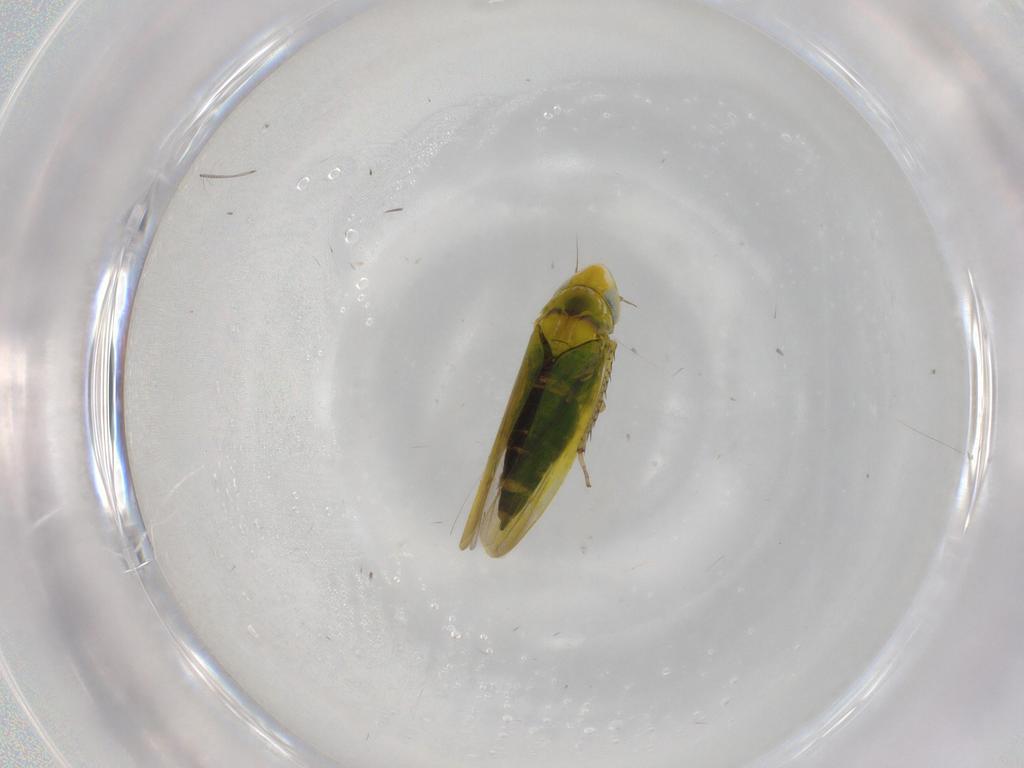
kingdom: Animalia
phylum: Arthropoda
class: Insecta
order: Hemiptera
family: Cicadellidae
